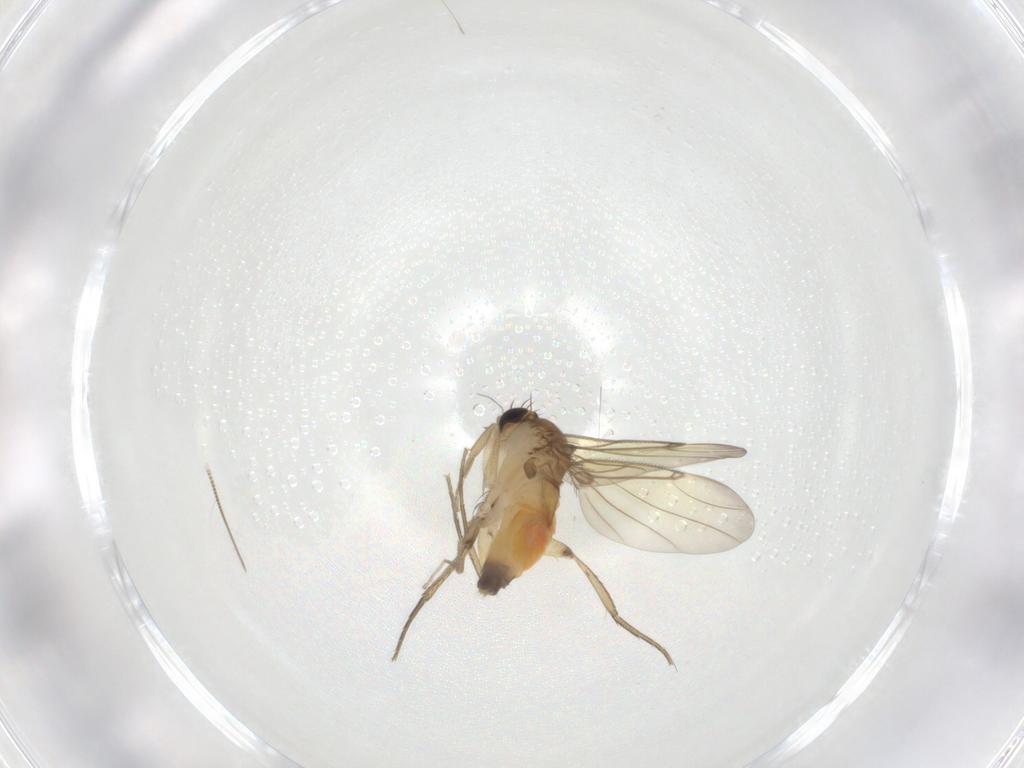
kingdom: Animalia
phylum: Arthropoda
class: Insecta
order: Diptera
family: Phoridae
